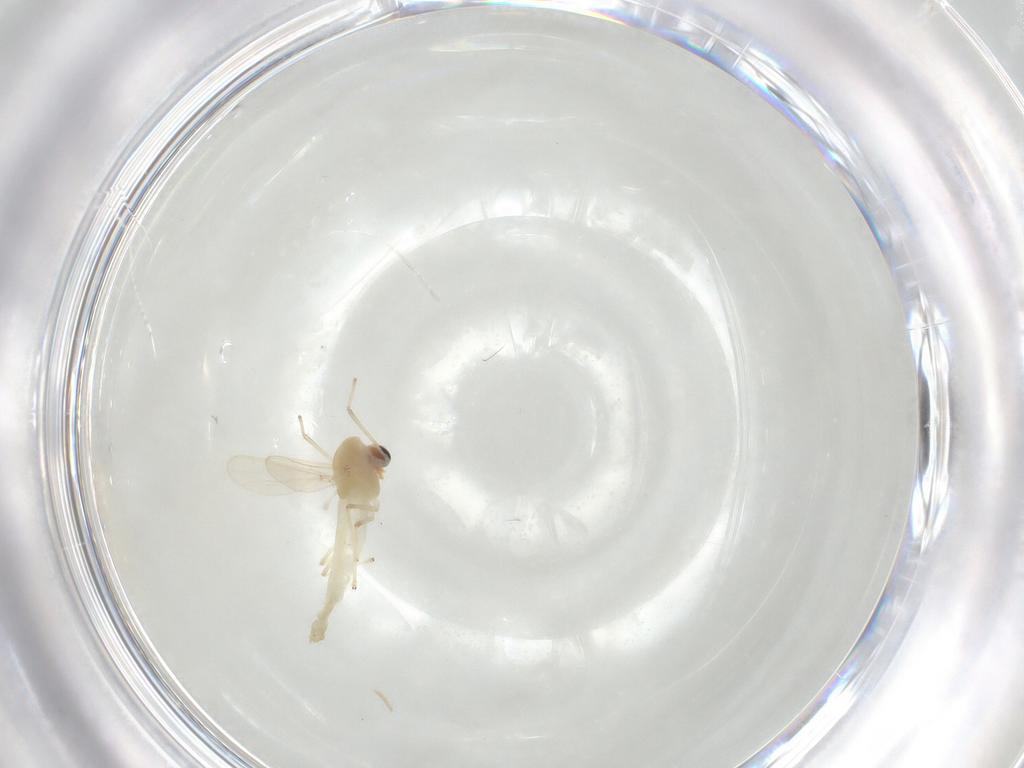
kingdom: Animalia
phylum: Arthropoda
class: Insecta
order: Diptera
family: Chironomidae
